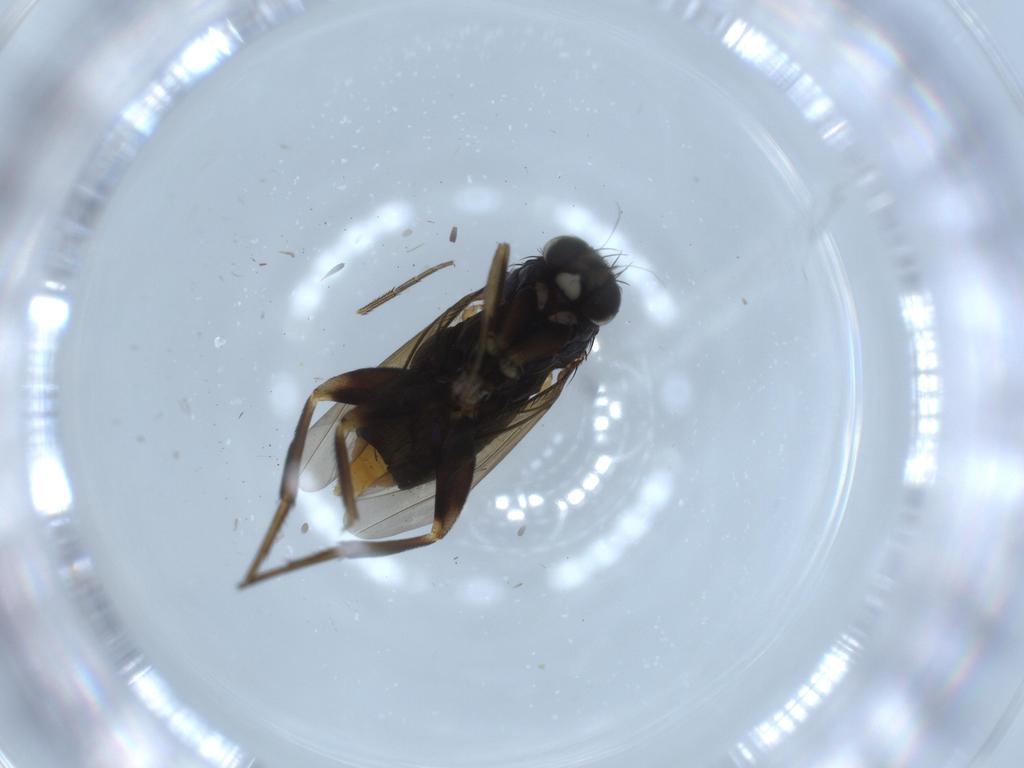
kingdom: Animalia
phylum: Arthropoda
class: Insecta
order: Diptera
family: Phoridae
